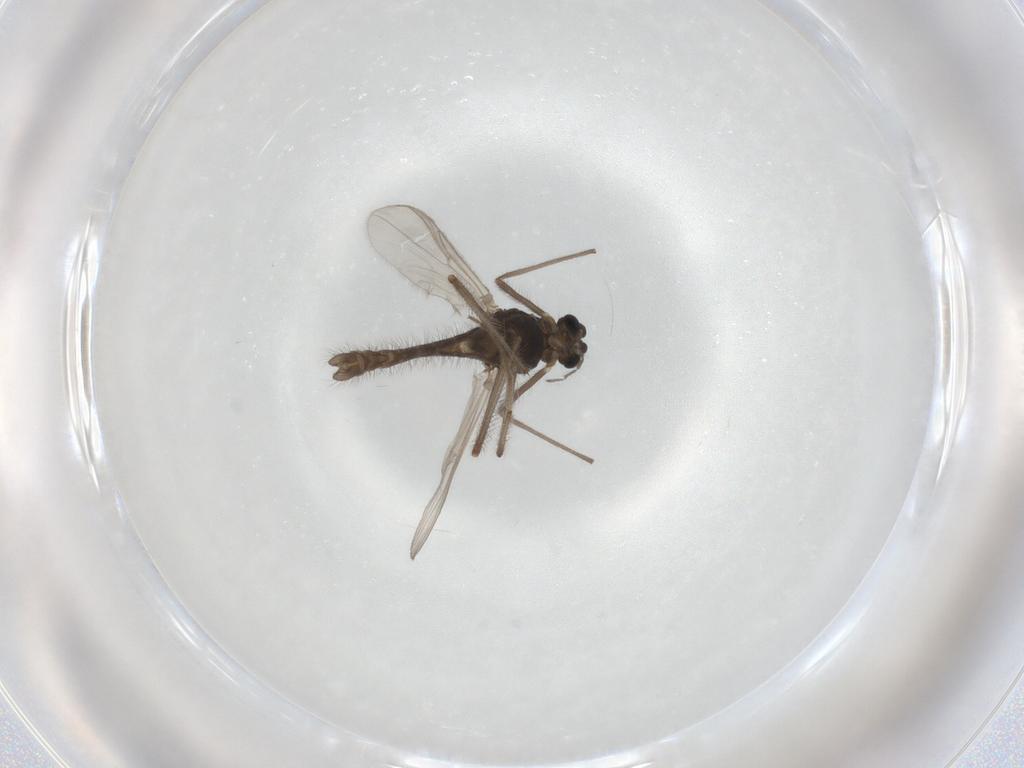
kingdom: Animalia
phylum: Arthropoda
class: Insecta
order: Diptera
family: Chironomidae
